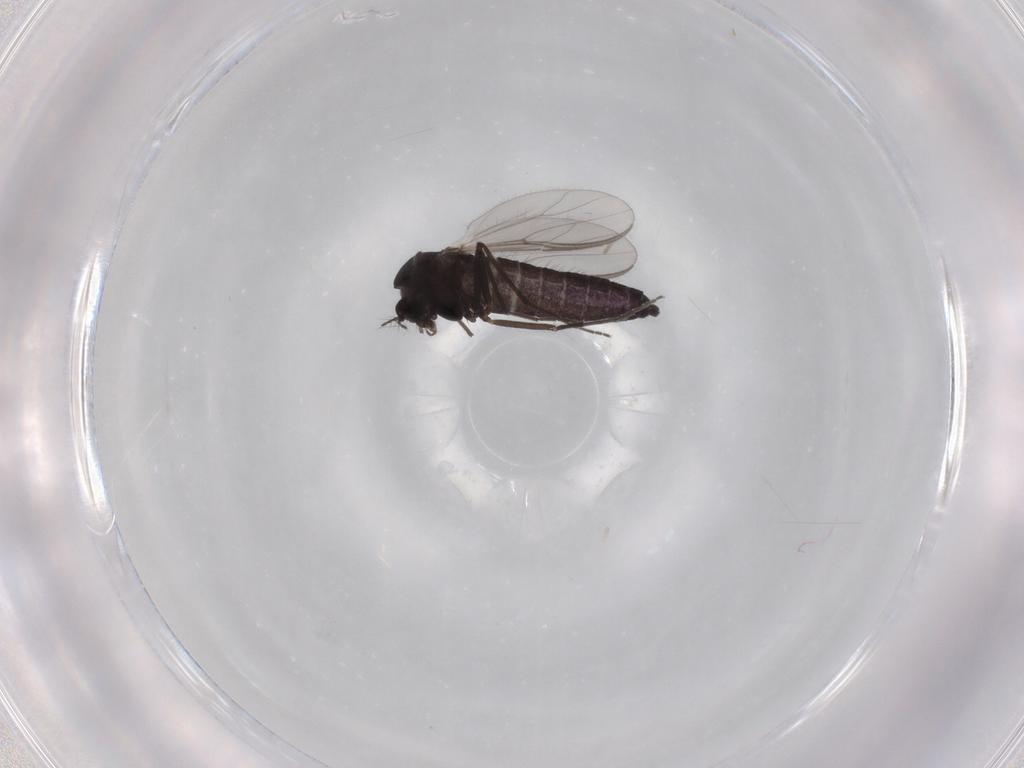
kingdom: Animalia
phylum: Arthropoda
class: Insecta
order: Diptera
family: Chironomidae
